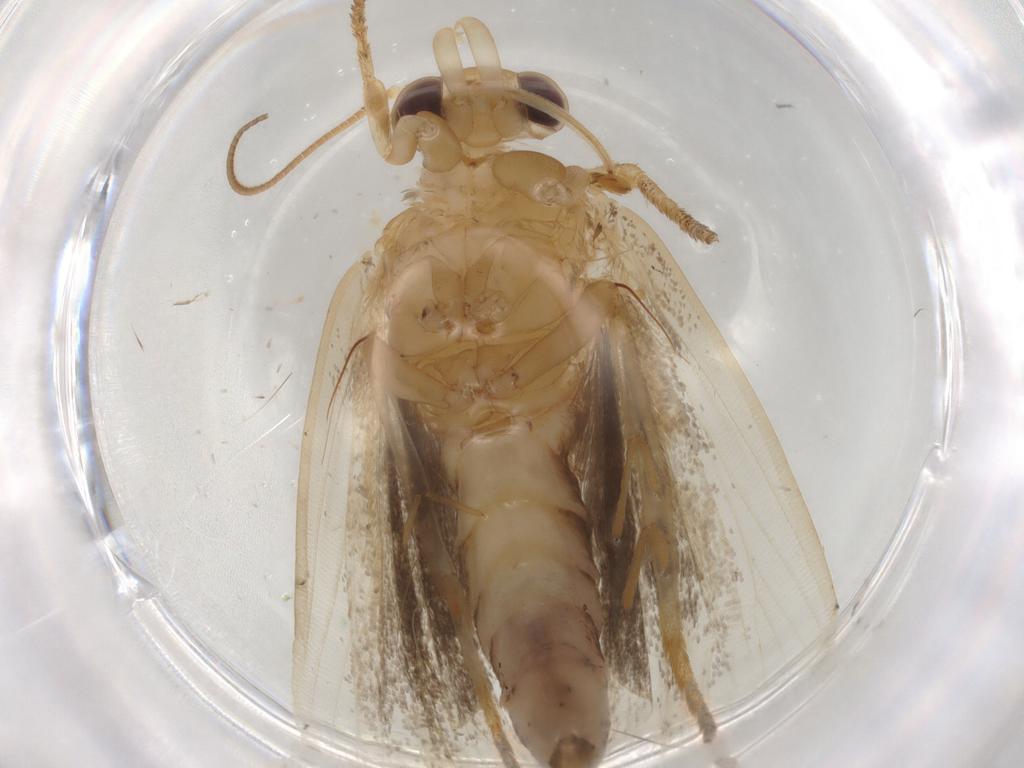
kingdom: Animalia
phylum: Arthropoda
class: Insecta
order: Lepidoptera
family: Immidae
